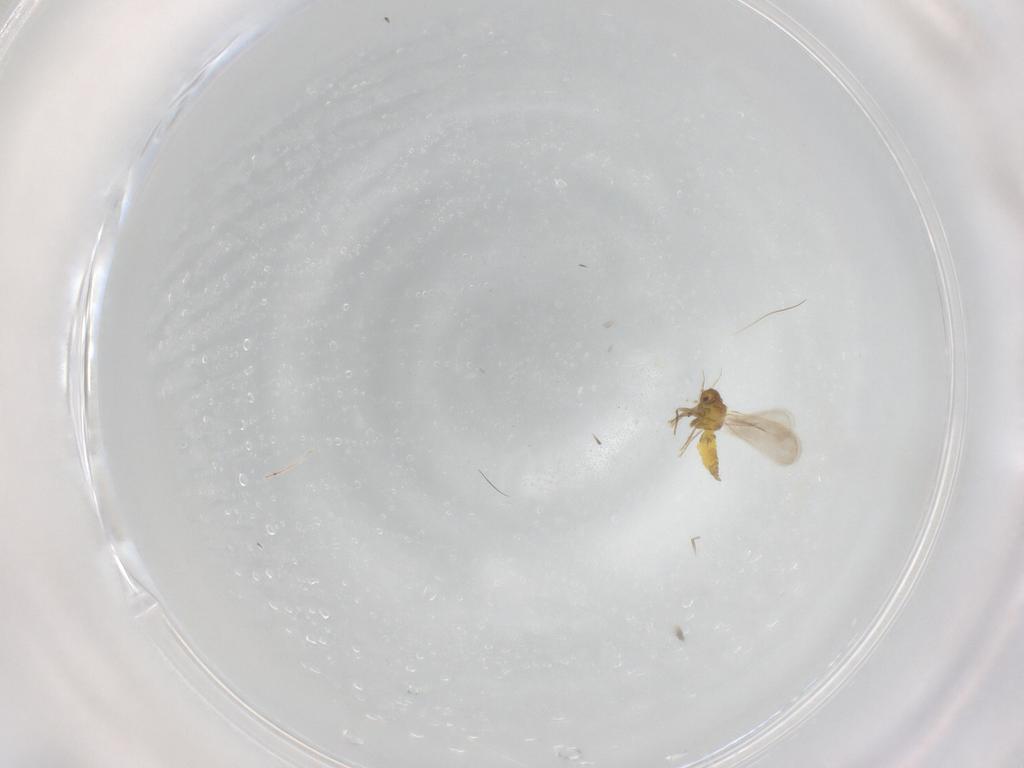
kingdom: Animalia
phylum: Arthropoda
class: Insecta
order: Hemiptera
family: Aleyrodidae
